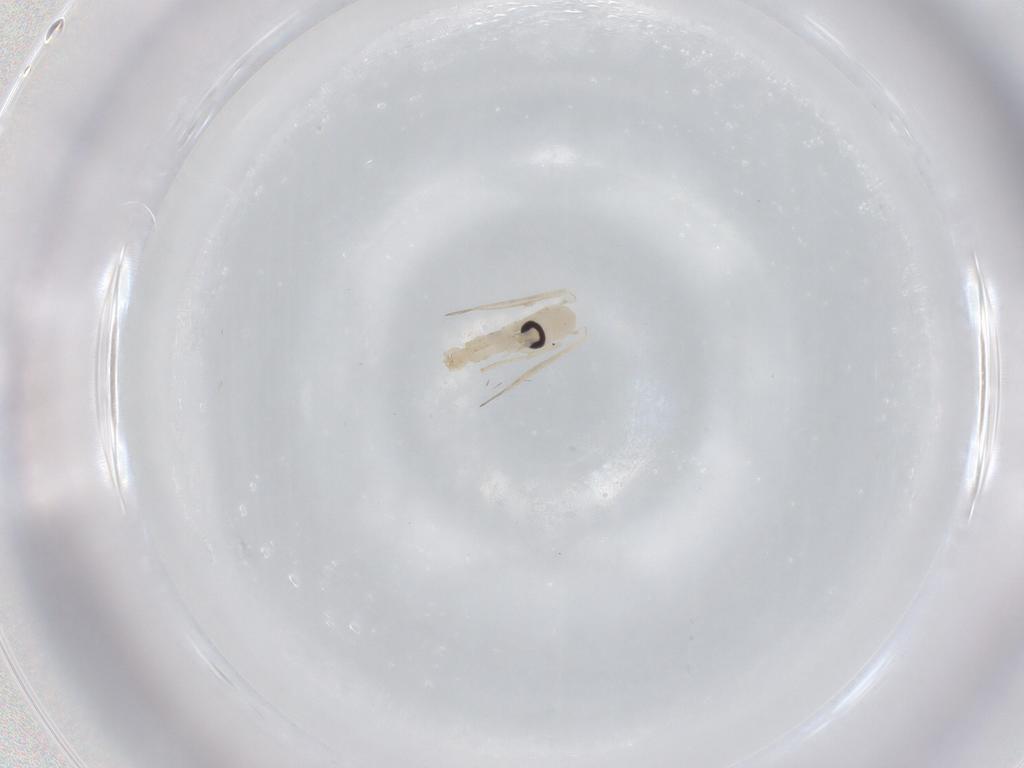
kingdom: Animalia
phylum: Arthropoda
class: Insecta
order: Diptera
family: Psychodidae
